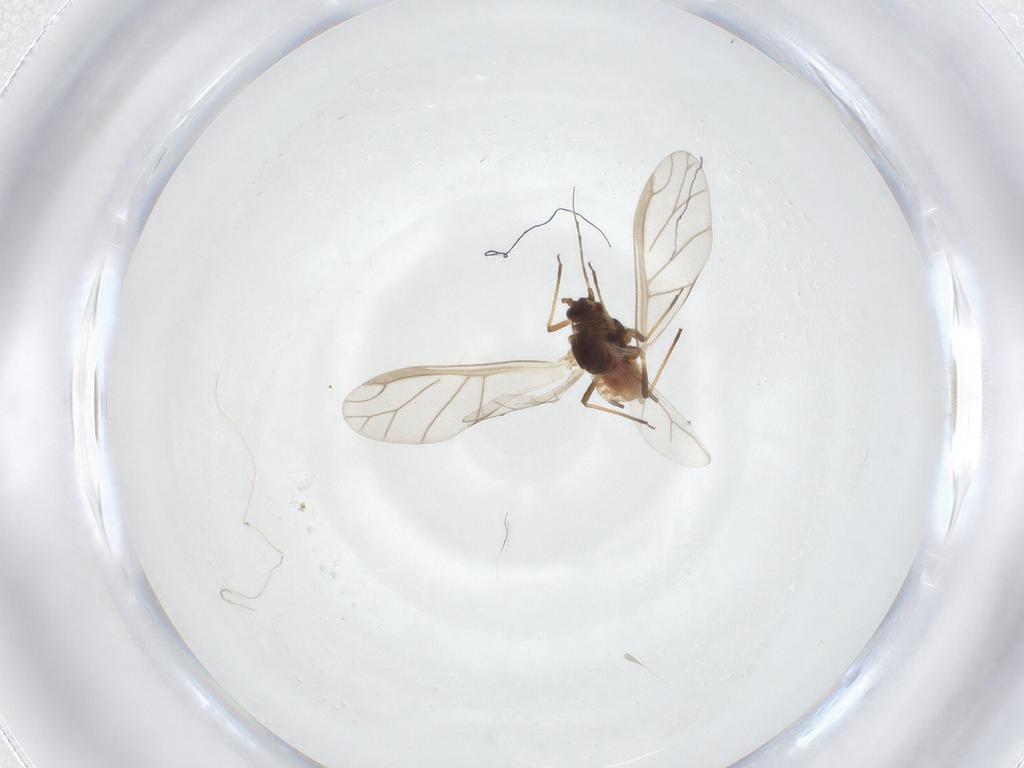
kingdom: Animalia
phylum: Arthropoda
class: Insecta
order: Hemiptera
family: Aphididae
